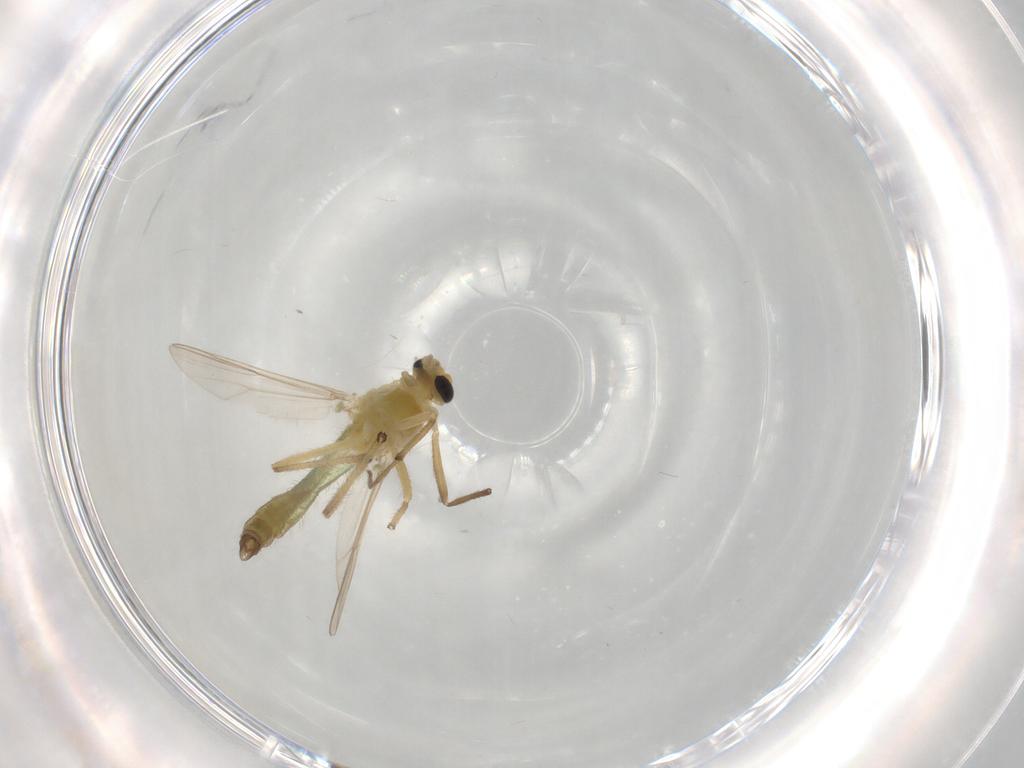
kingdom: Animalia
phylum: Arthropoda
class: Insecta
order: Diptera
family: Chironomidae
